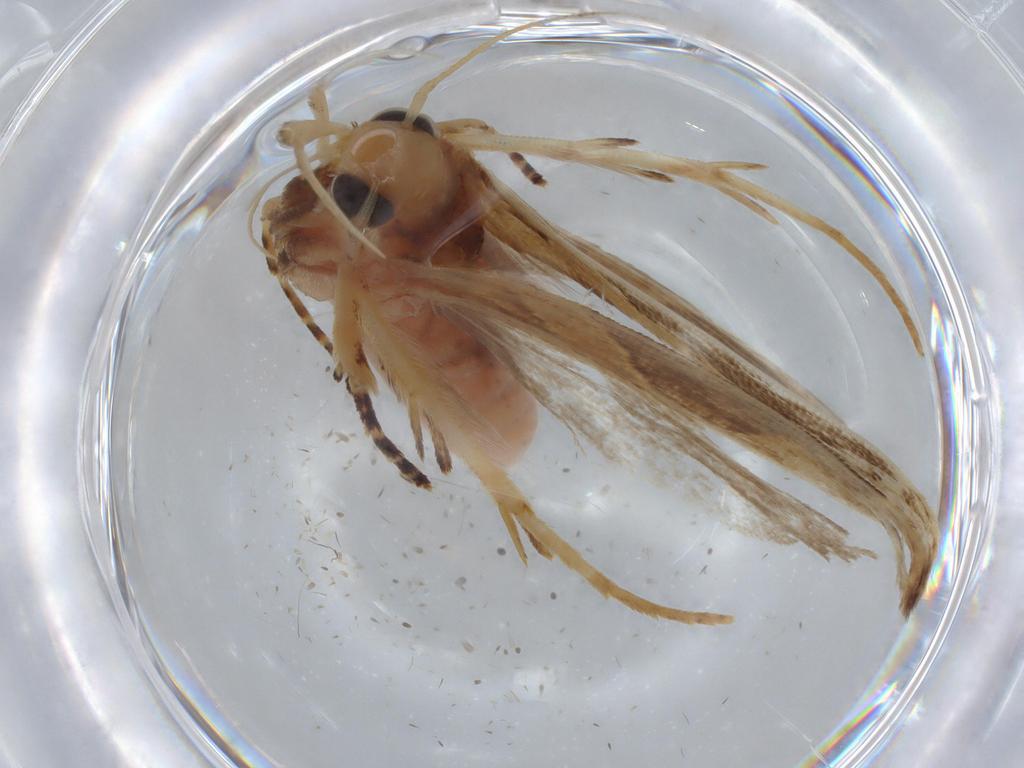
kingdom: Animalia
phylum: Arthropoda
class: Insecta
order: Lepidoptera
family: Gelechiidae
